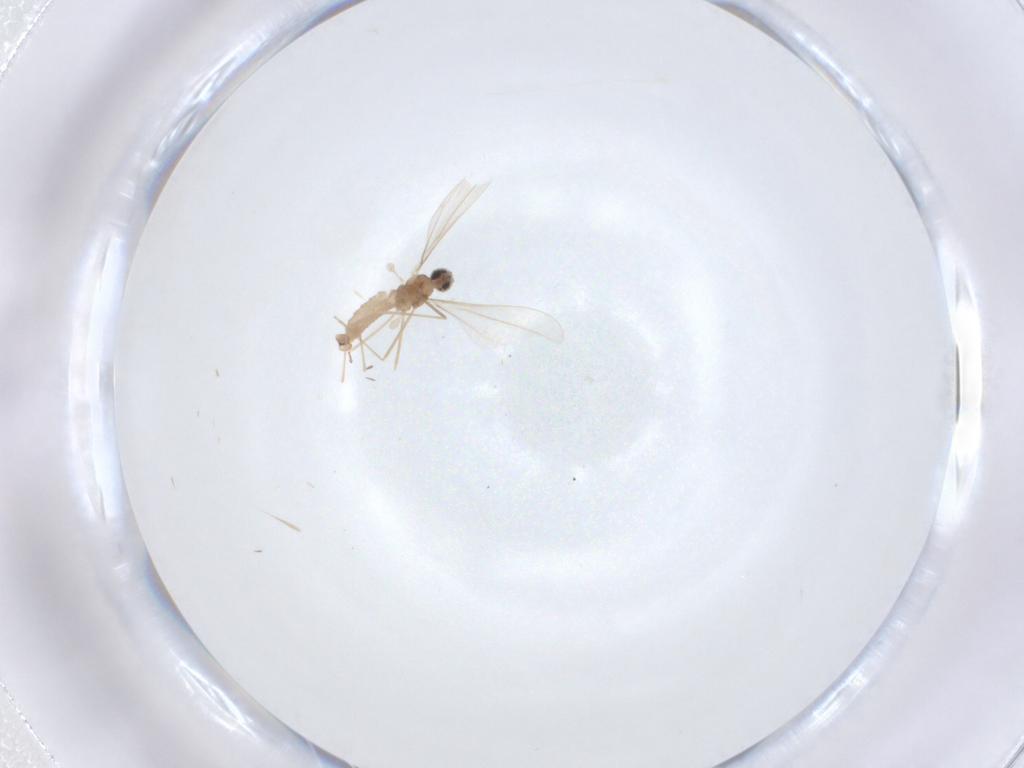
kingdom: Animalia
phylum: Arthropoda
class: Insecta
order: Diptera
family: Cecidomyiidae
